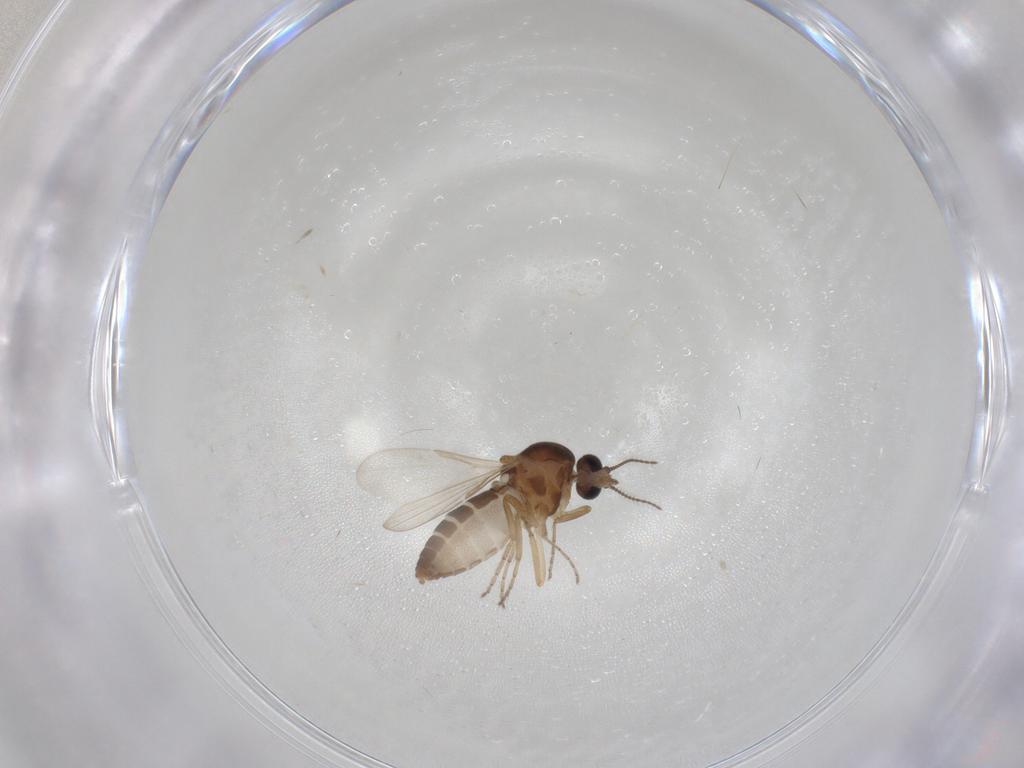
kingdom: Animalia
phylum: Arthropoda
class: Insecta
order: Diptera
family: Ceratopogonidae
